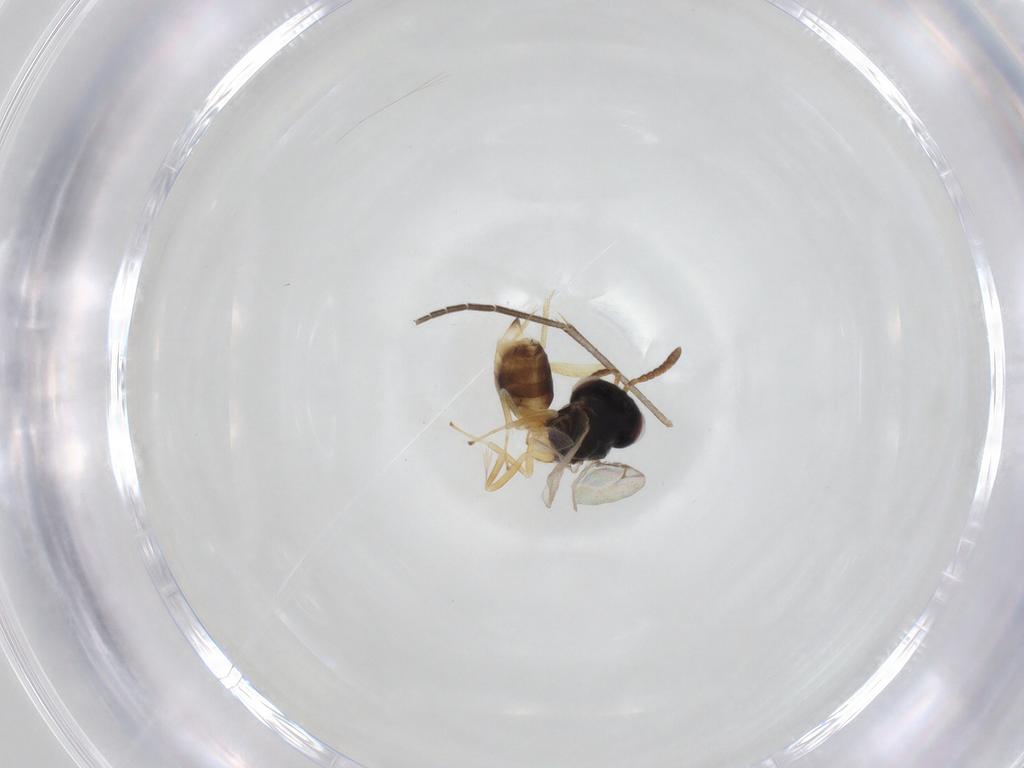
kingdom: Animalia
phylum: Arthropoda
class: Insecta
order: Hymenoptera
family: Pteromalidae
